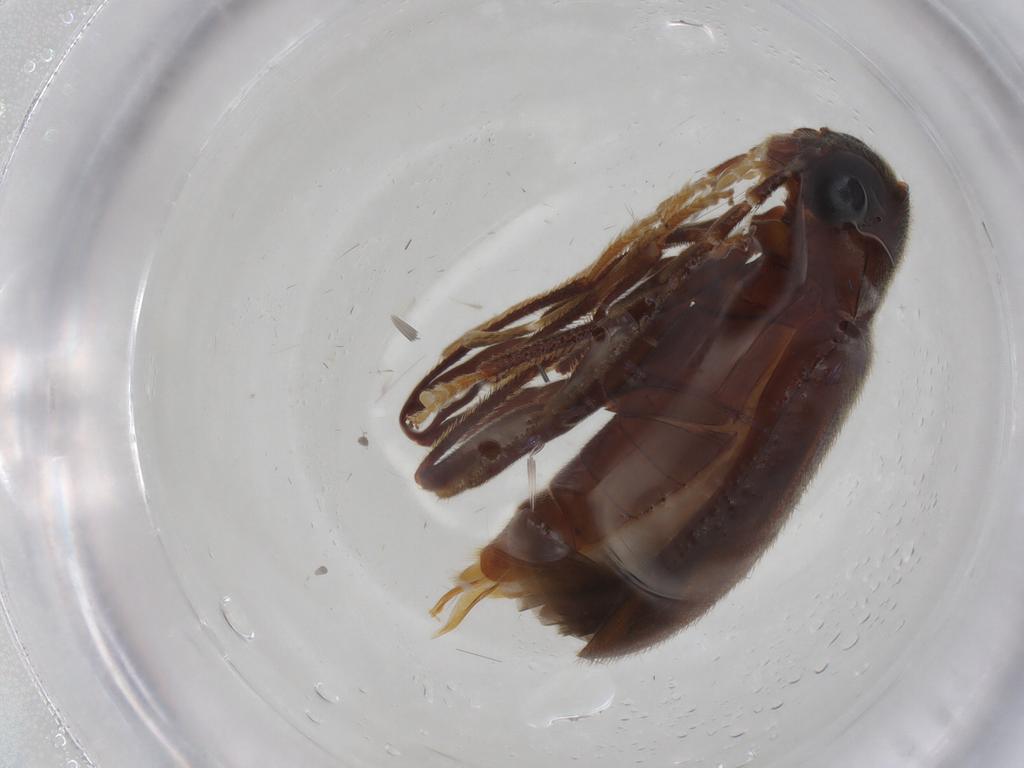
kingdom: Animalia
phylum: Arthropoda
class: Insecta
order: Coleoptera
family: Ptilodactylidae
